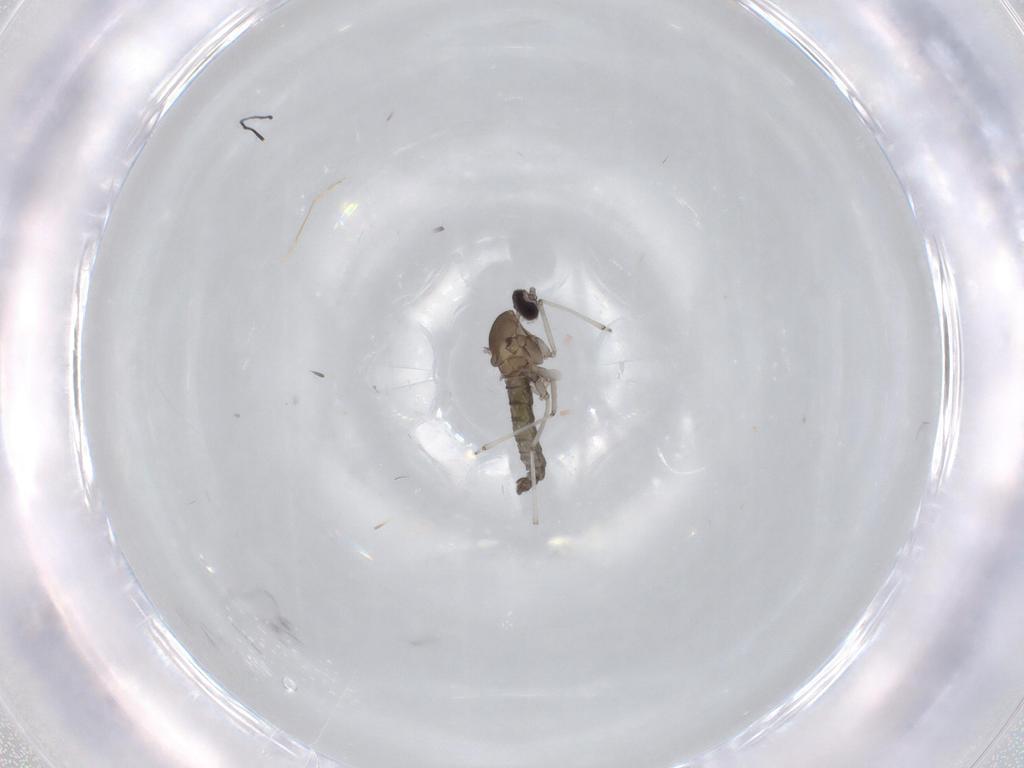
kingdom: Animalia
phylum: Arthropoda
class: Insecta
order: Diptera
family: Cecidomyiidae
